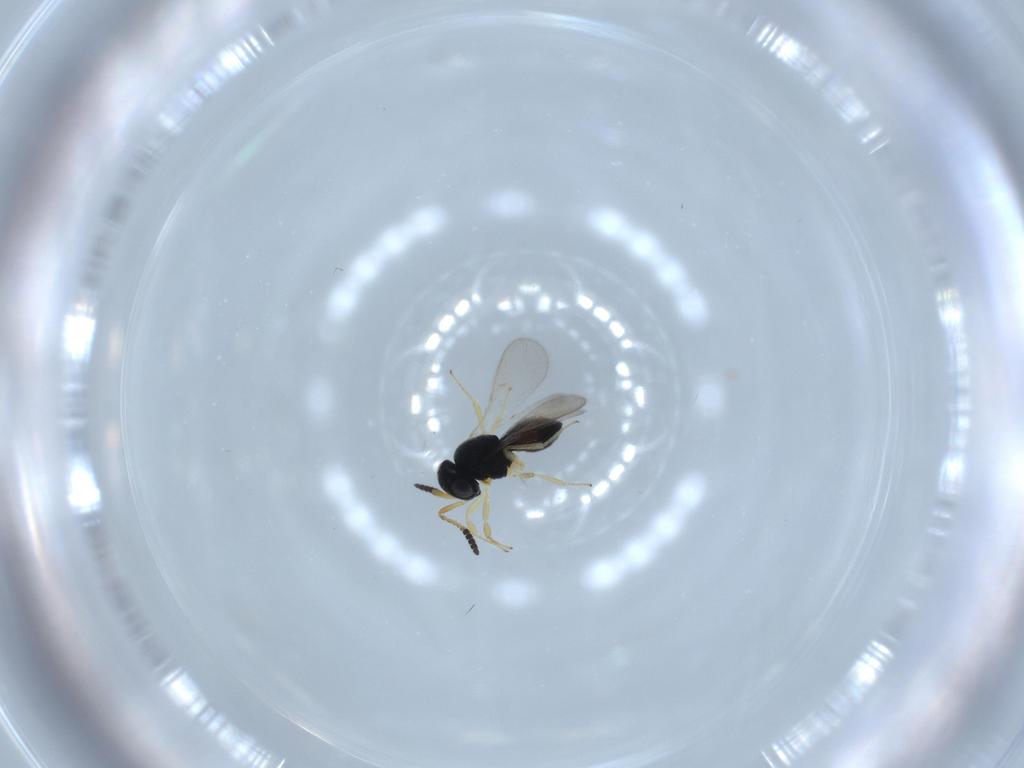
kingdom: Animalia
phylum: Arthropoda
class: Insecta
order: Hymenoptera
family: Scelionidae
